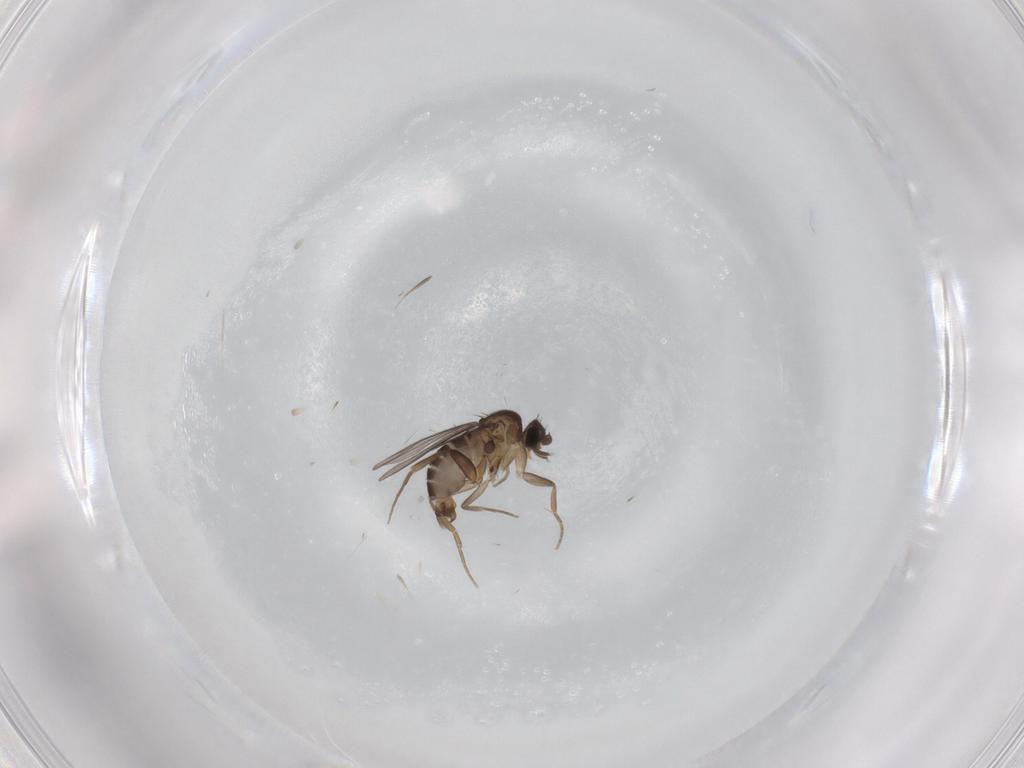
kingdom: Animalia
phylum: Arthropoda
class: Insecta
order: Diptera
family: Phoridae
